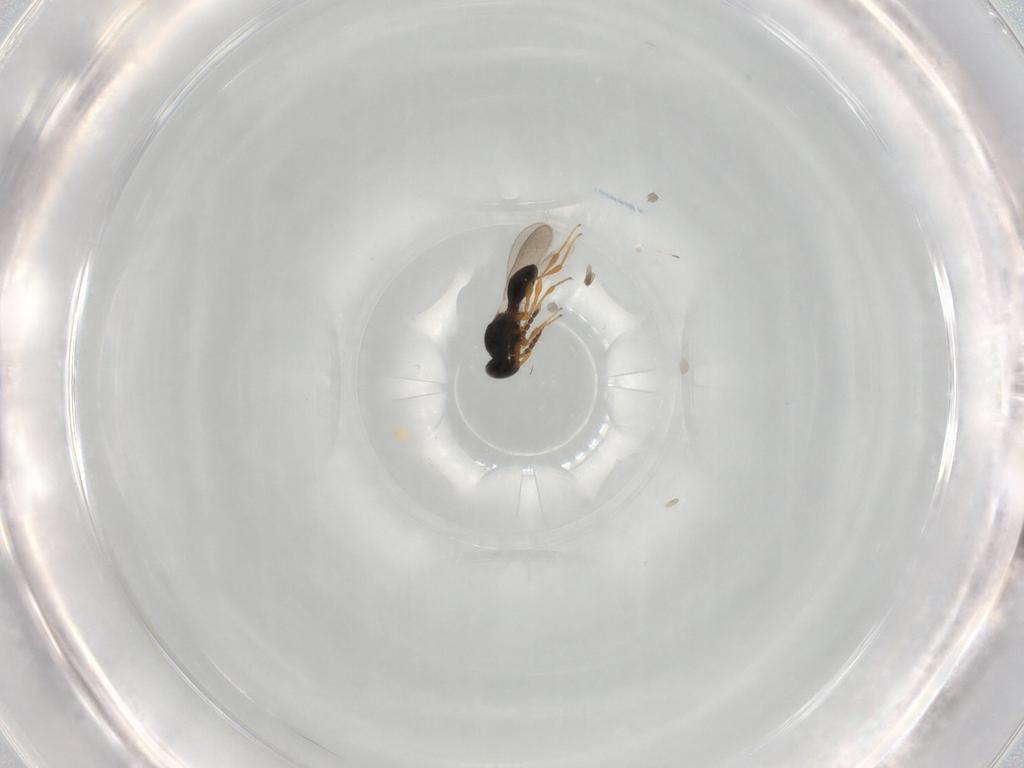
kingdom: Animalia
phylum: Arthropoda
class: Insecta
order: Hymenoptera
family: Platygastridae
